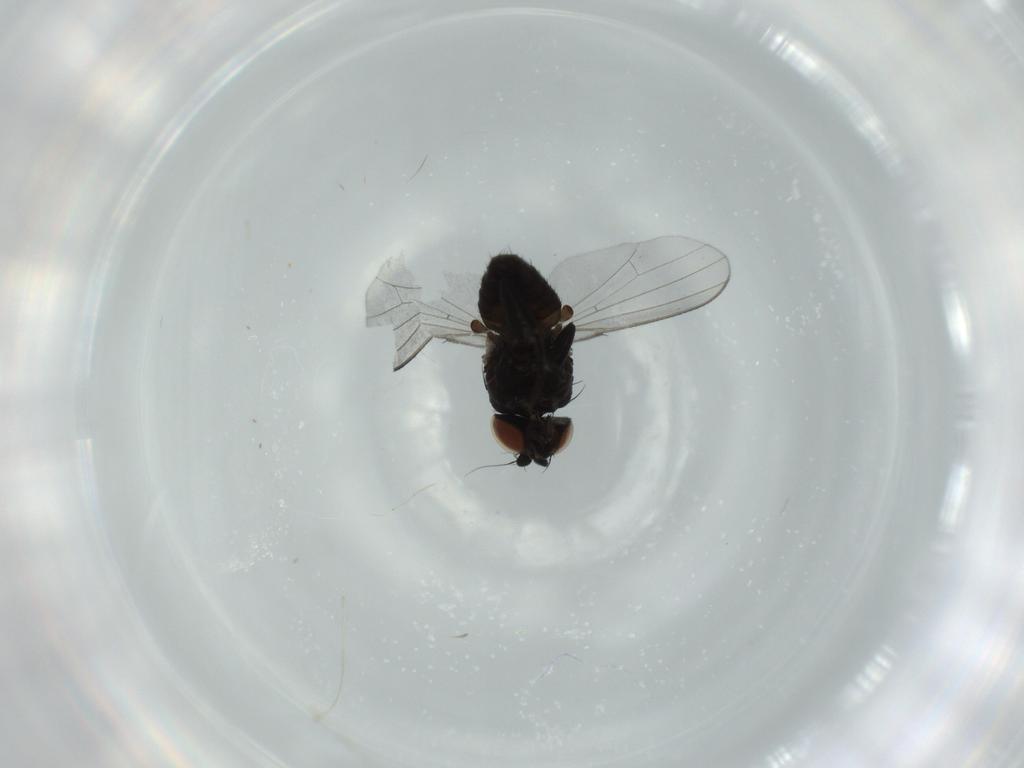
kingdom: Animalia
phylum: Arthropoda
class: Insecta
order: Diptera
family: Milichiidae
